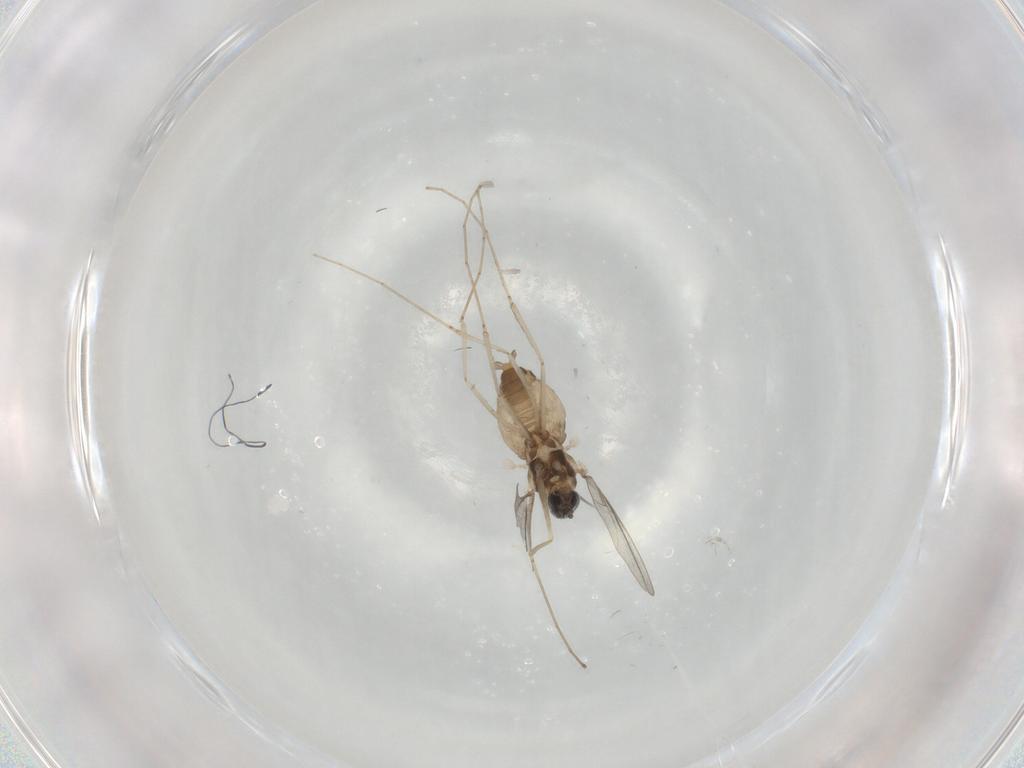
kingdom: Animalia
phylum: Arthropoda
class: Insecta
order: Diptera
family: Cecidomyiidae
